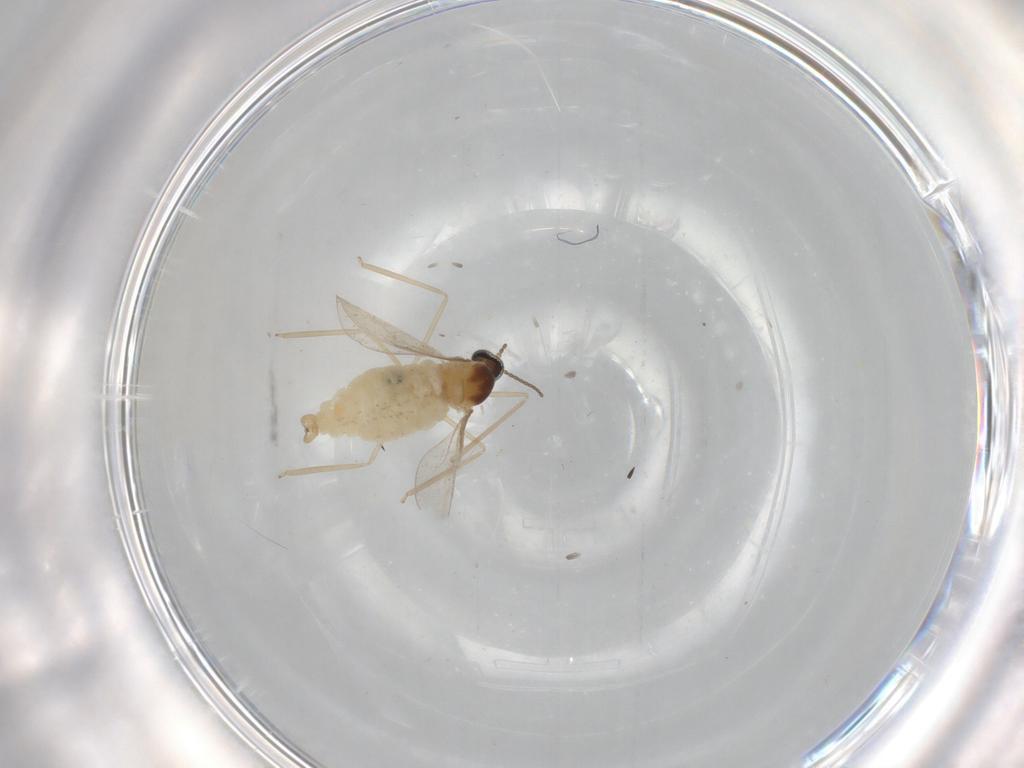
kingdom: Animalia
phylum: Arthropoda
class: Insecta
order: Diptera
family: Cecidomyiidae
